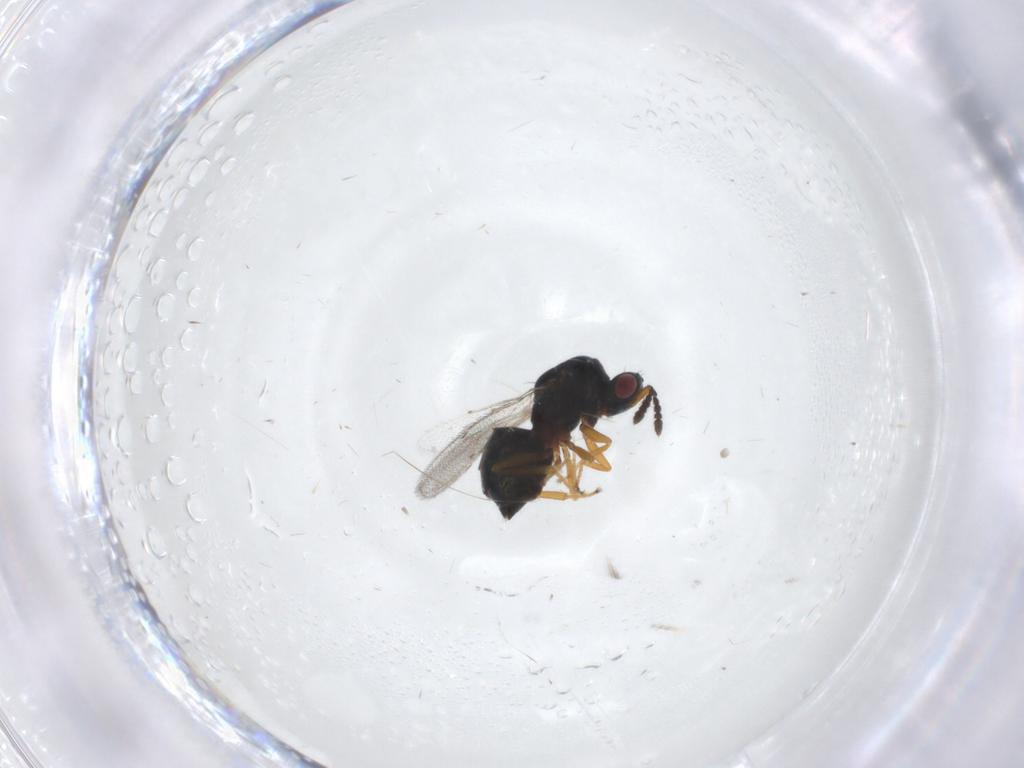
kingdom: Animalia
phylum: Arthropoda
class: Insecta
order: Hymenoptera
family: Eulophidae
